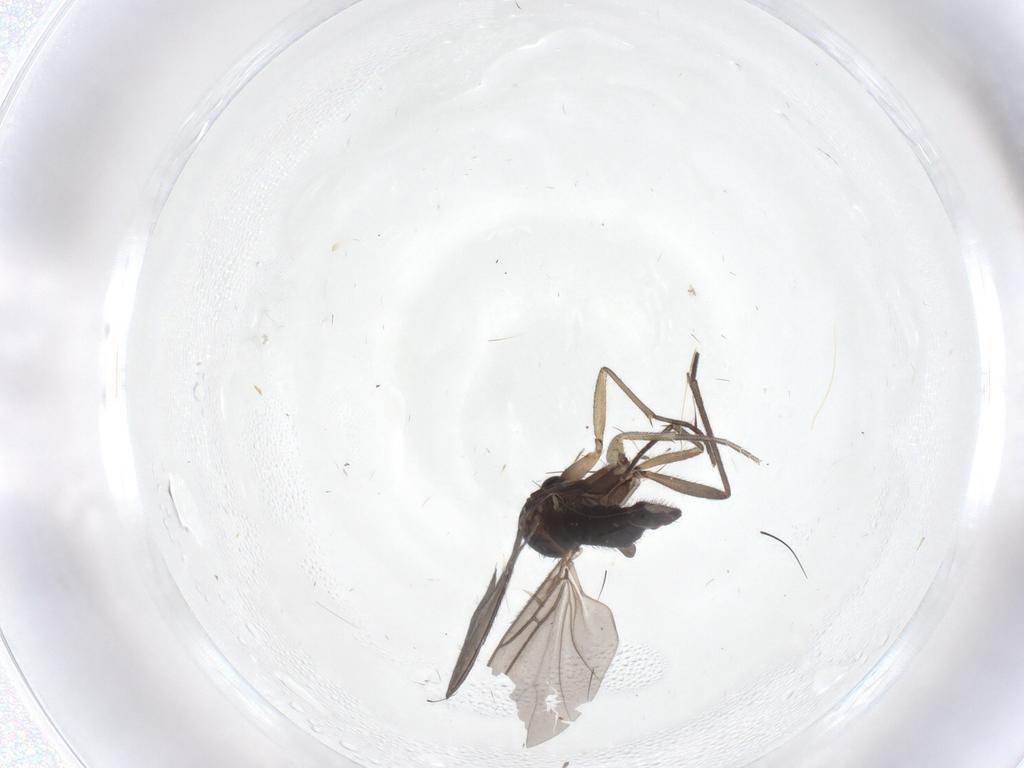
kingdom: Animalia
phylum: Arthropoda
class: Insecta
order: Diptera
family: Sciaridae
